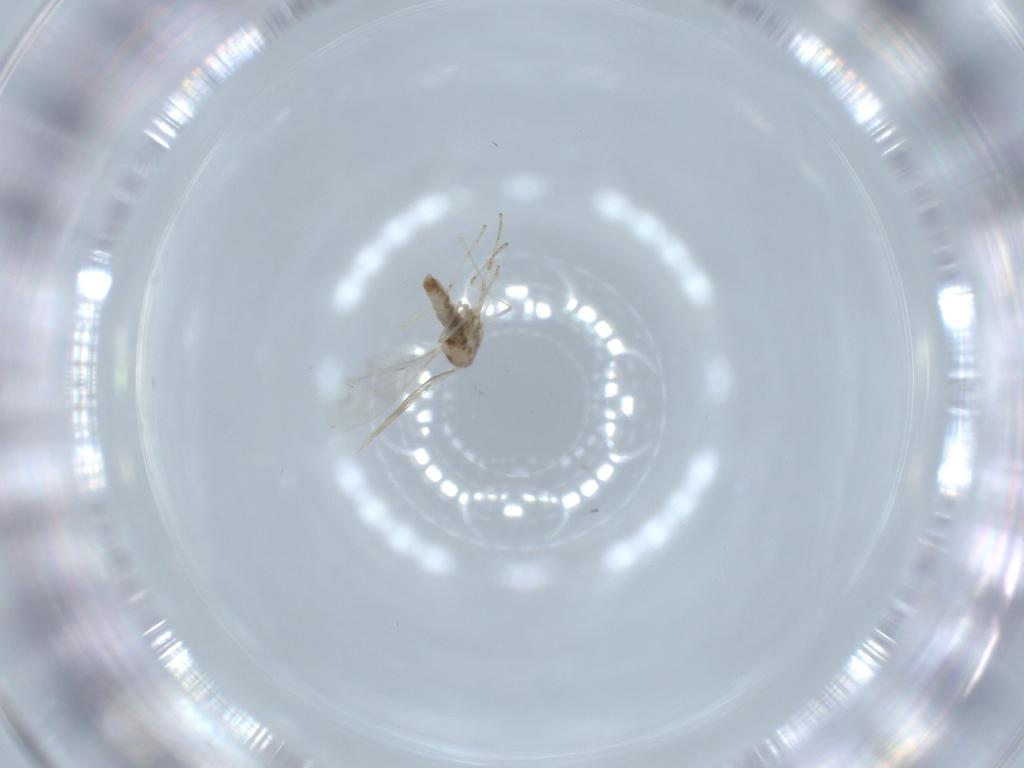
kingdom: Animalia
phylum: Arthropoda
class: Insecta
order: Diptera
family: Cecidomyiidae
